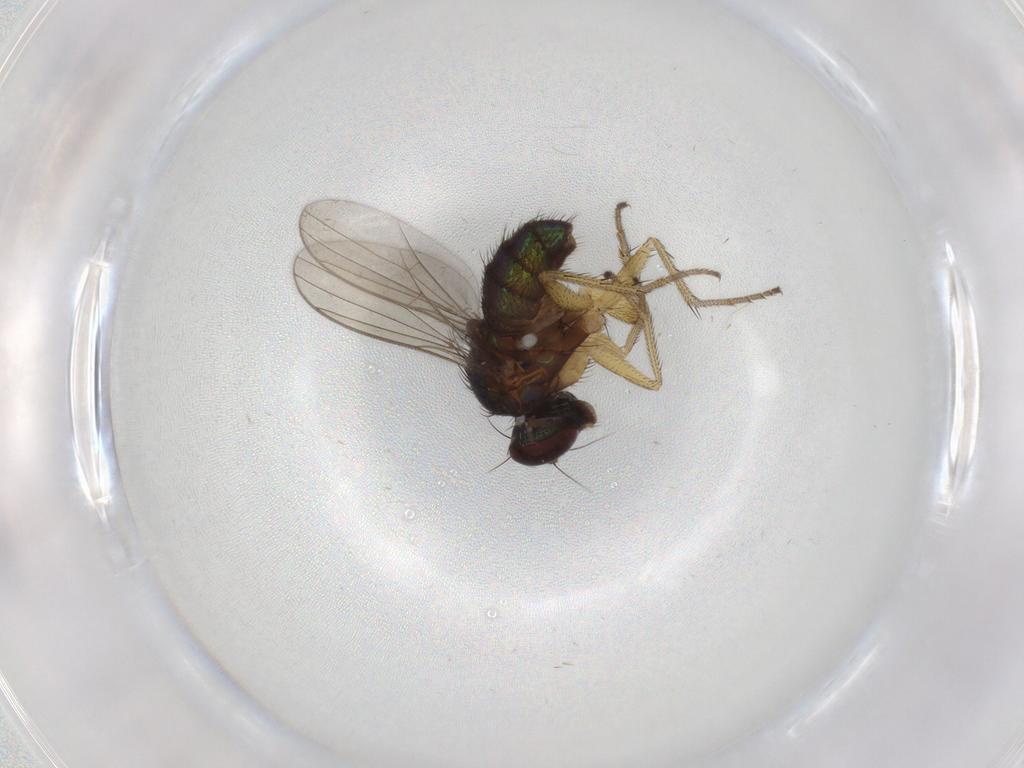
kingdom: Animalia
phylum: Arthropoda
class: Insecta
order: Diptera
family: Dolichopodidae
